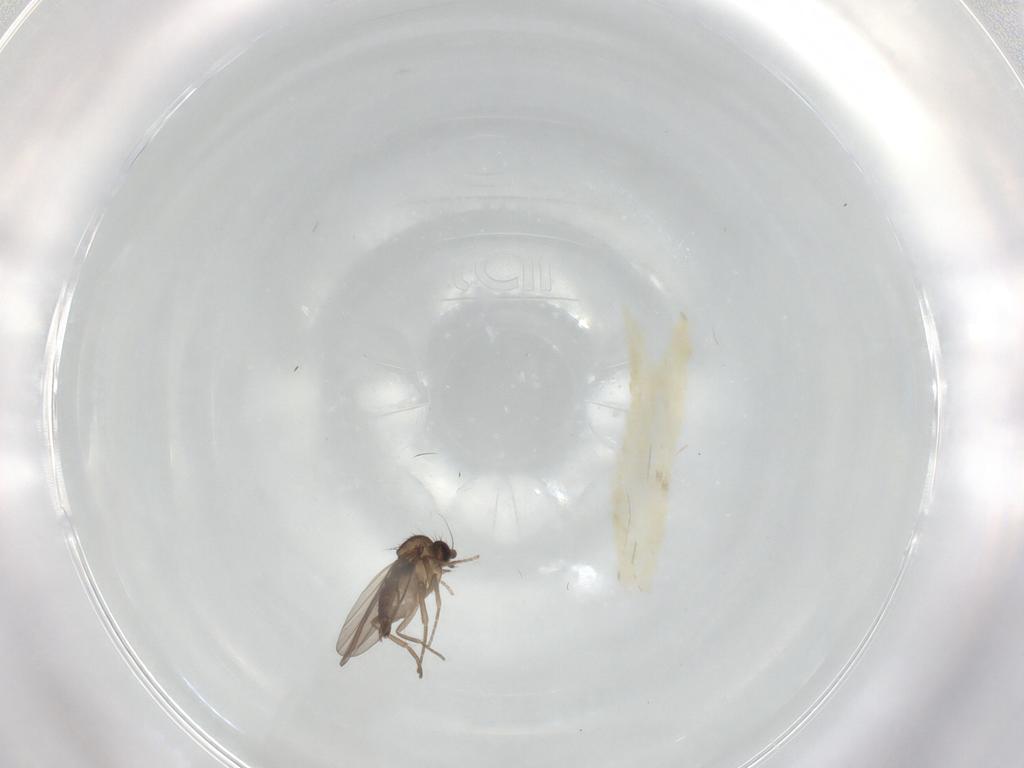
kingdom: Animalia
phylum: Arthropoda
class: Insecta
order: Diptera
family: Phoridae
